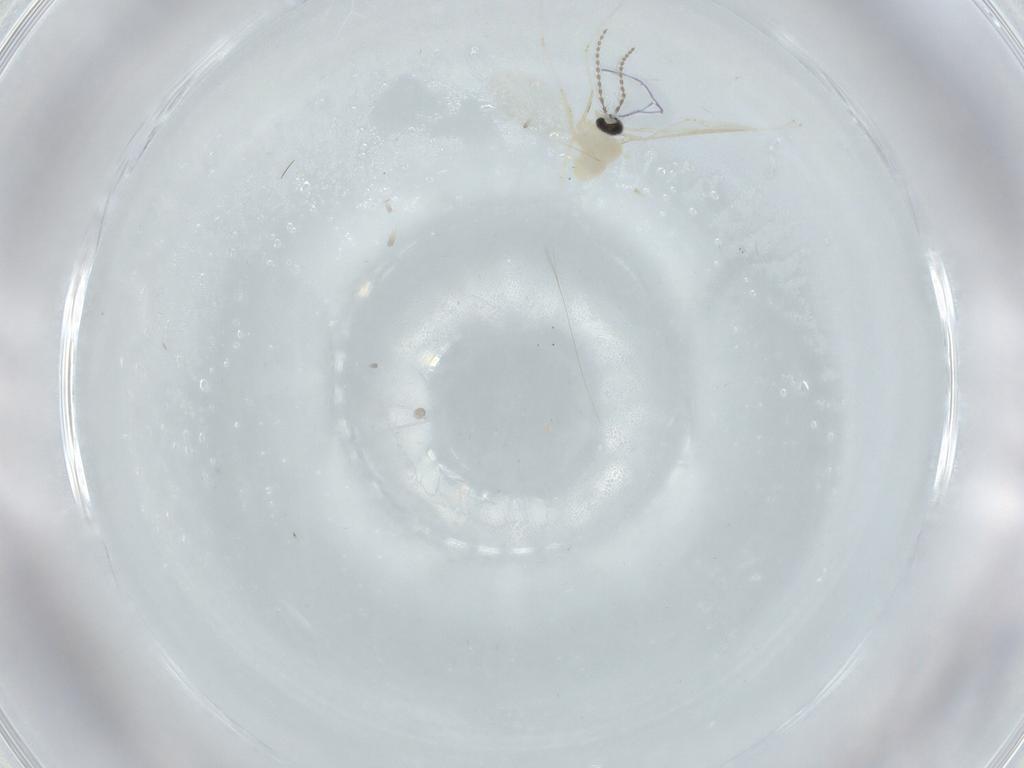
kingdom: Animalia
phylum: Arthropoda
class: Insecta
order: Diptera
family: Cecidomyiidae
